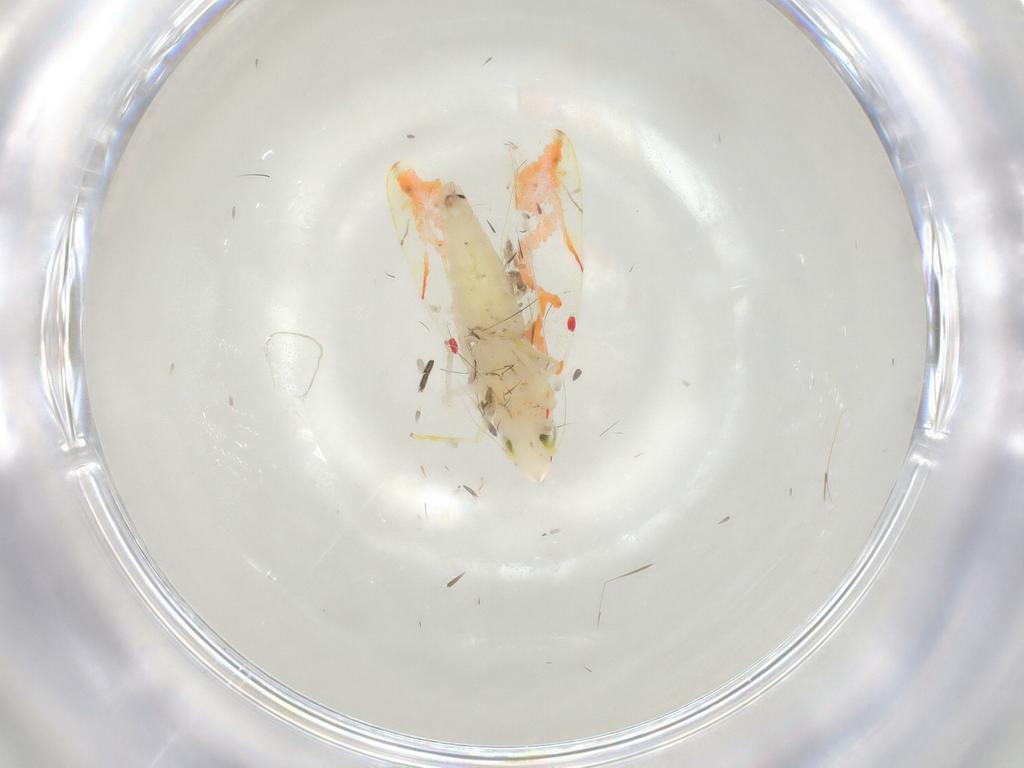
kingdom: Animalia
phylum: Arthropoda
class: Insecta
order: Hemiptera
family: Cicadellidae
